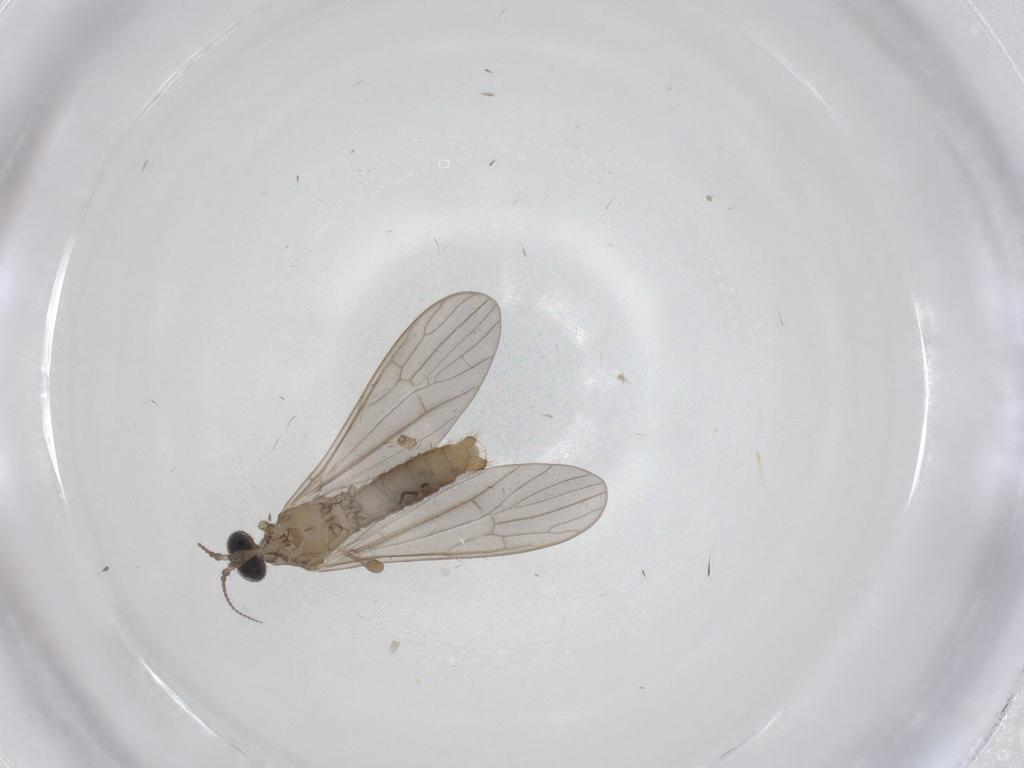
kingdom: Animalia
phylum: Arthropoda
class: Insecta
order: Diptera
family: Limoniidae
